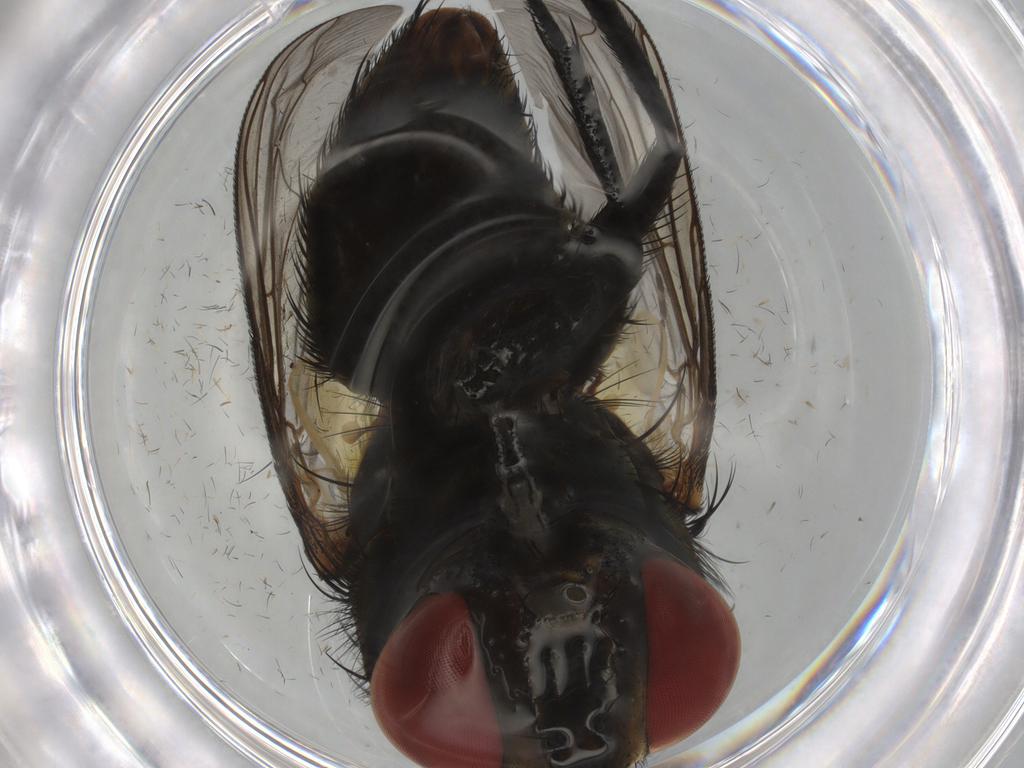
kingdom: Animalia
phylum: Arthropoda
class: Insecta
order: Diptera
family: Sarcophagidae
